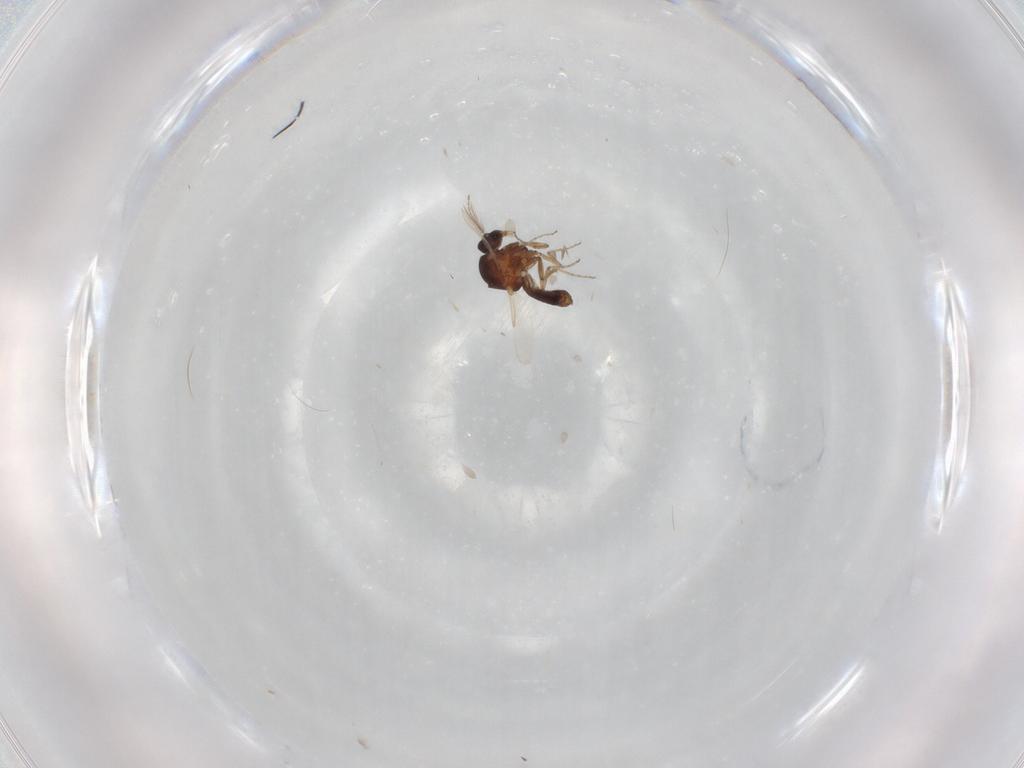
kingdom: Animalia
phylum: Arthropoda
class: Insecta
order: Diptera
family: Ceratopogonidae
